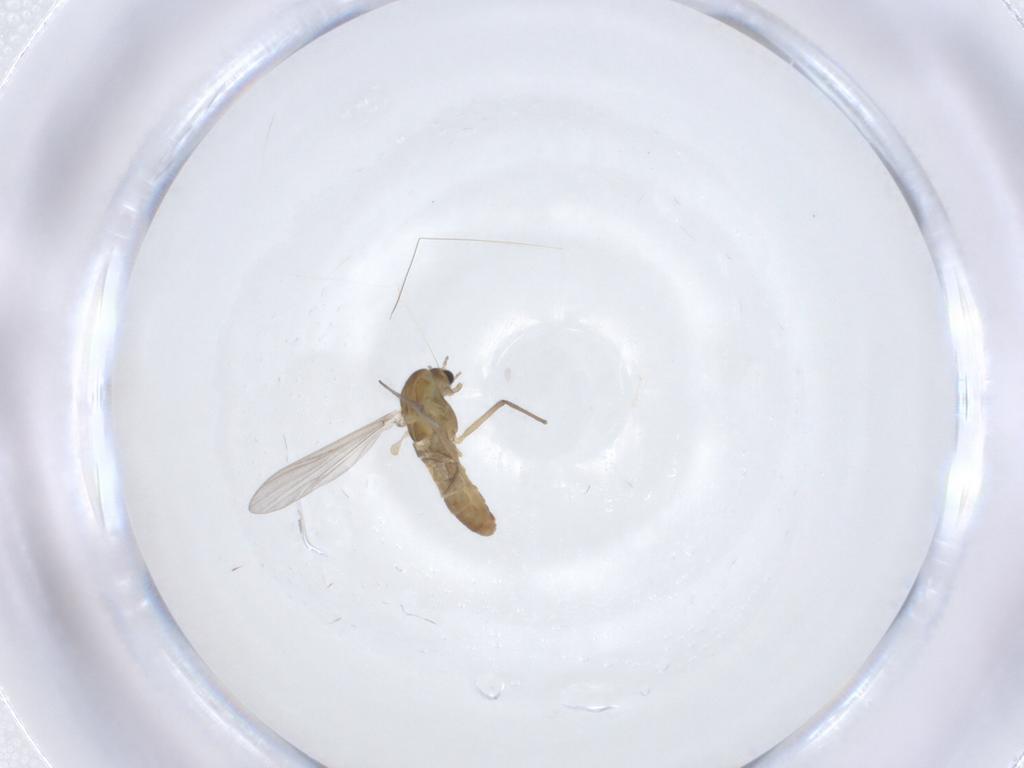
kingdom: Animalia
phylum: Arthropoda
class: Insecta
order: Diptera
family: Chironomidae
